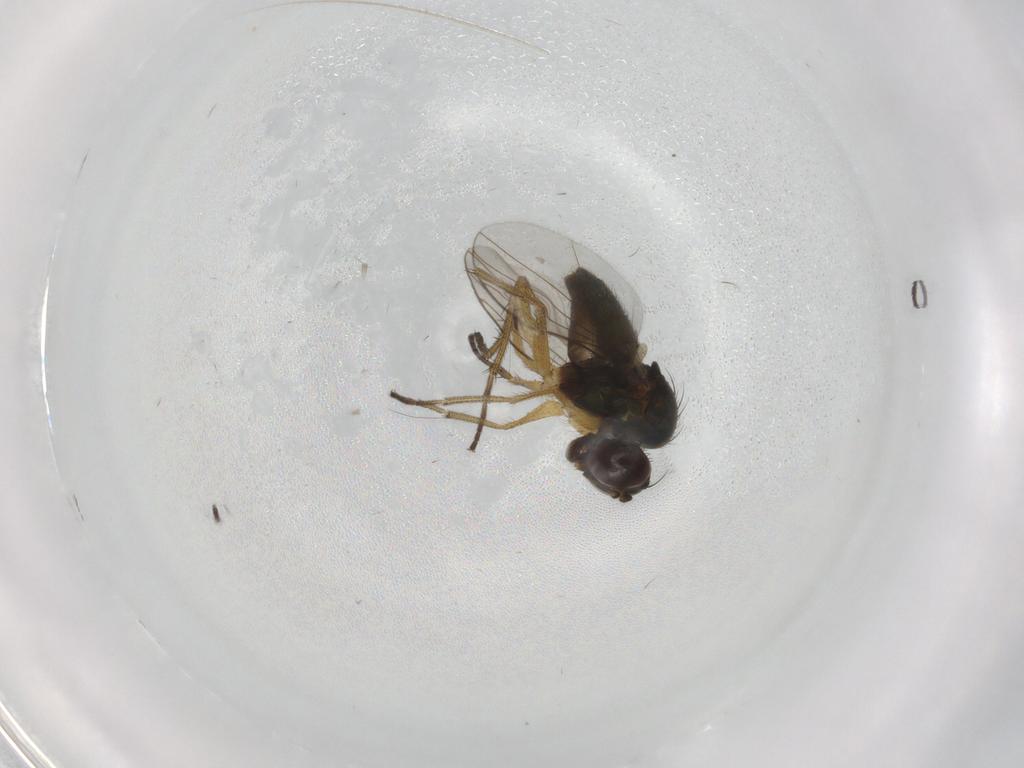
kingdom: Animalia
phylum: Arthropoda
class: Insecta
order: Diptera
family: Dolichopodidae
